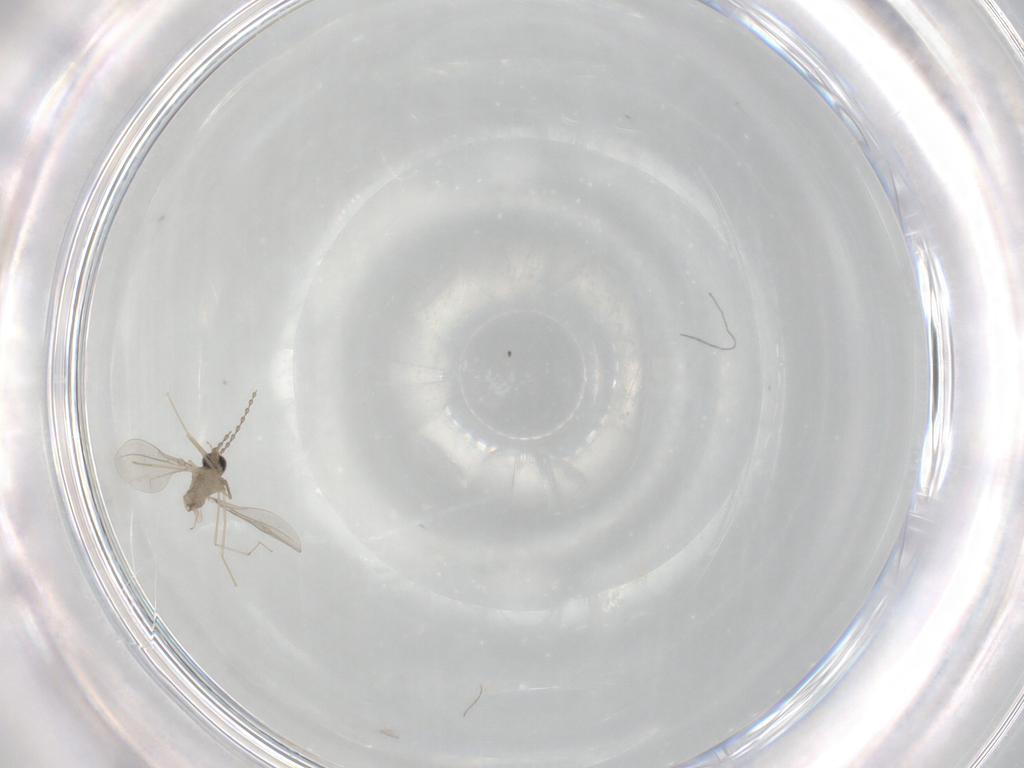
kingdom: Animalia
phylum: Arthropoda
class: Insecta
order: Diptera
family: Cecidomyiidae
